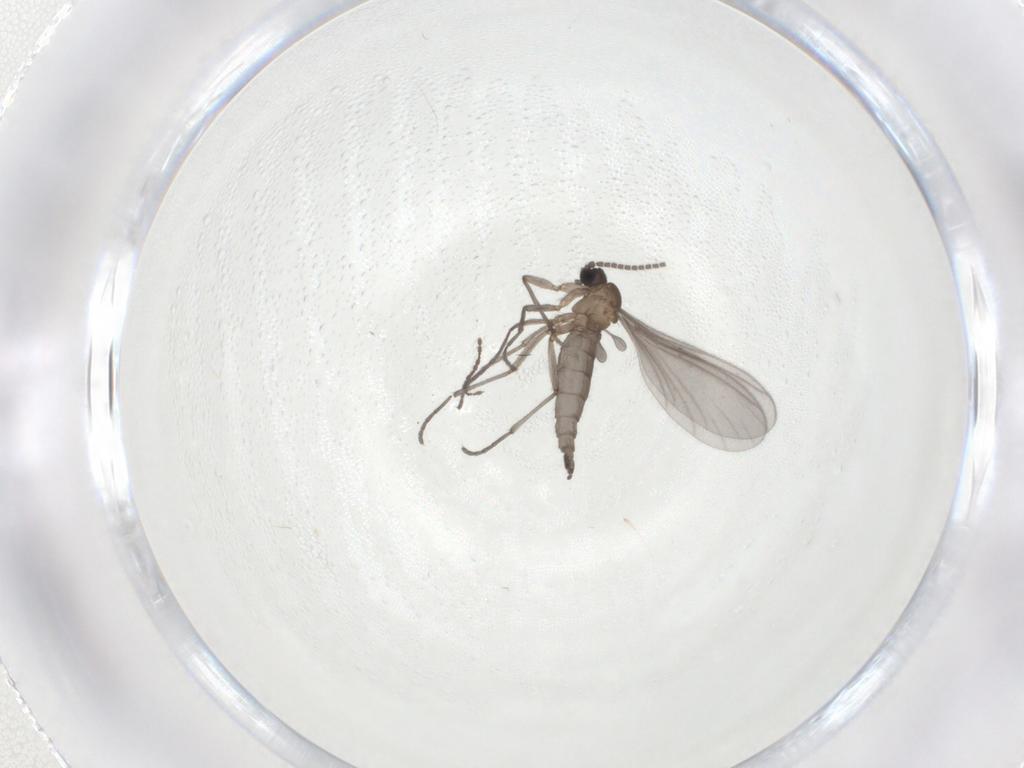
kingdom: Animalia
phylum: Arthropoda
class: Insecta
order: Diptera
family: Sciaridae
